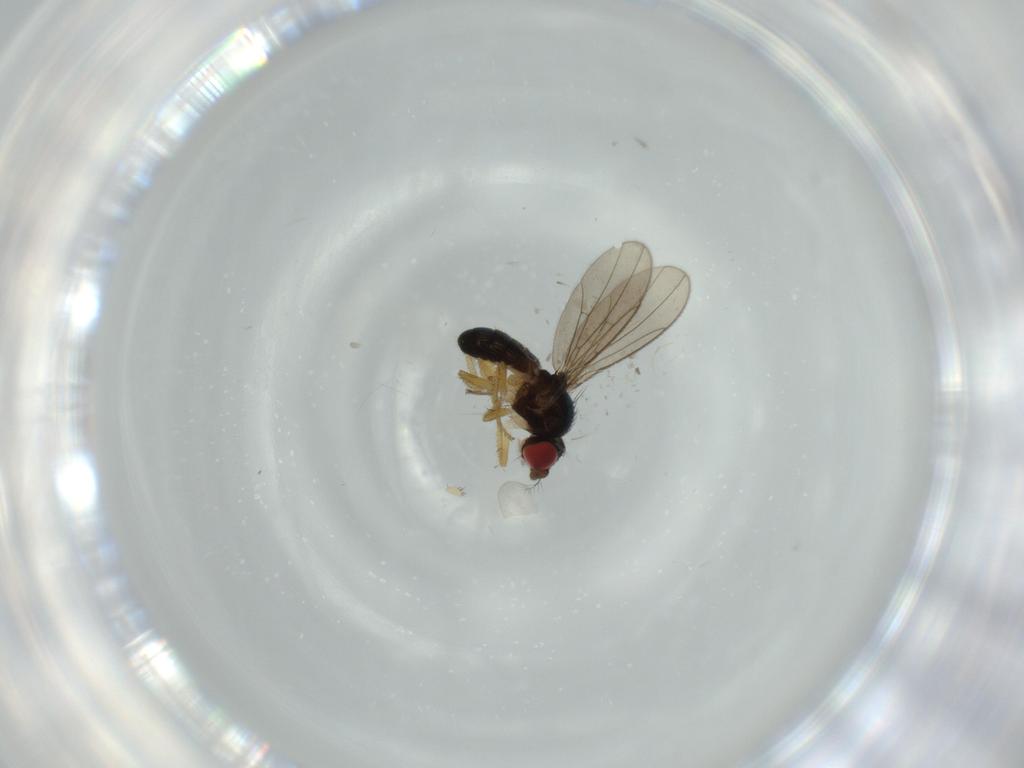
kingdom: Animalia
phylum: Arthropoda
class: Insecta
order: Diptera
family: Drosophilidae
